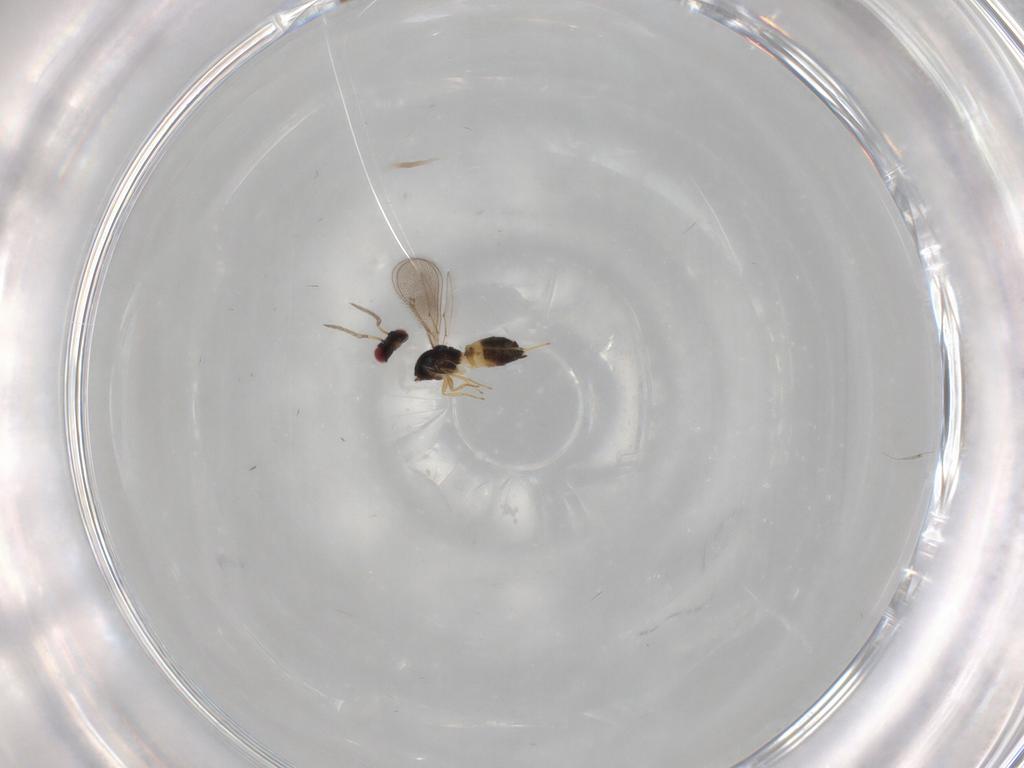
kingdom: Animalia
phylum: Arthropoda
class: Insecta
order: Hymenoptera
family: Eulophidae
